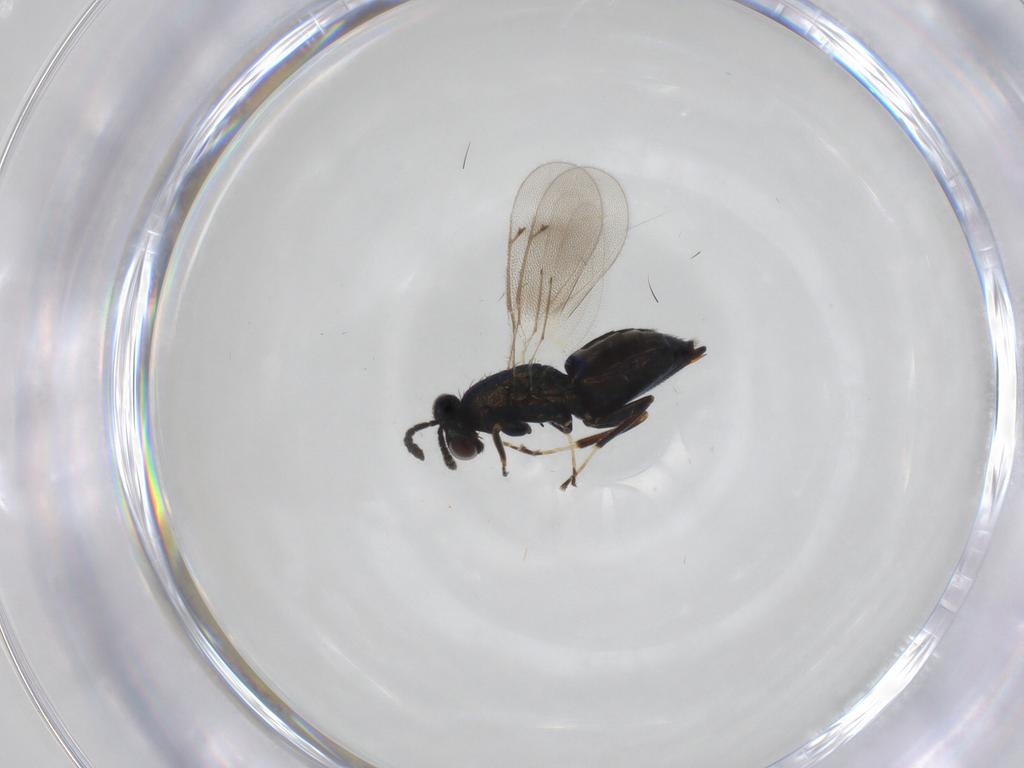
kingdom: Animalia
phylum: Arthropoda
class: Insecta
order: Hymenoptera
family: Eulophidae
